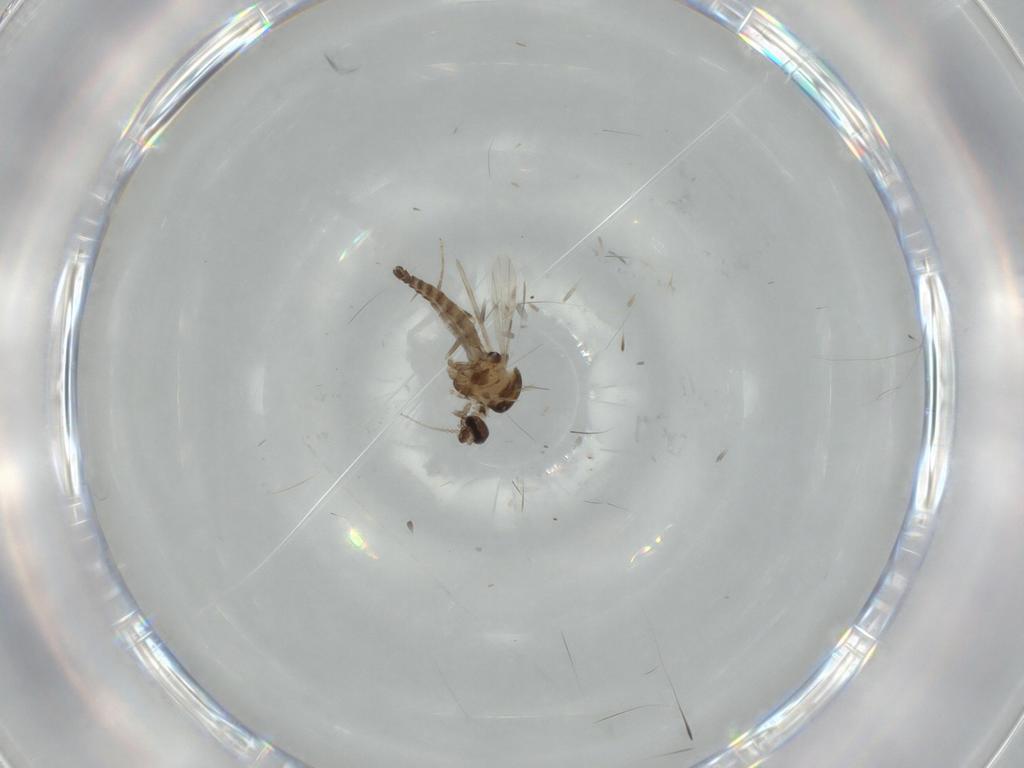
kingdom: Animalia
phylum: Arthropoda
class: Insecta
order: Diptera
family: Ceratopogonidae
